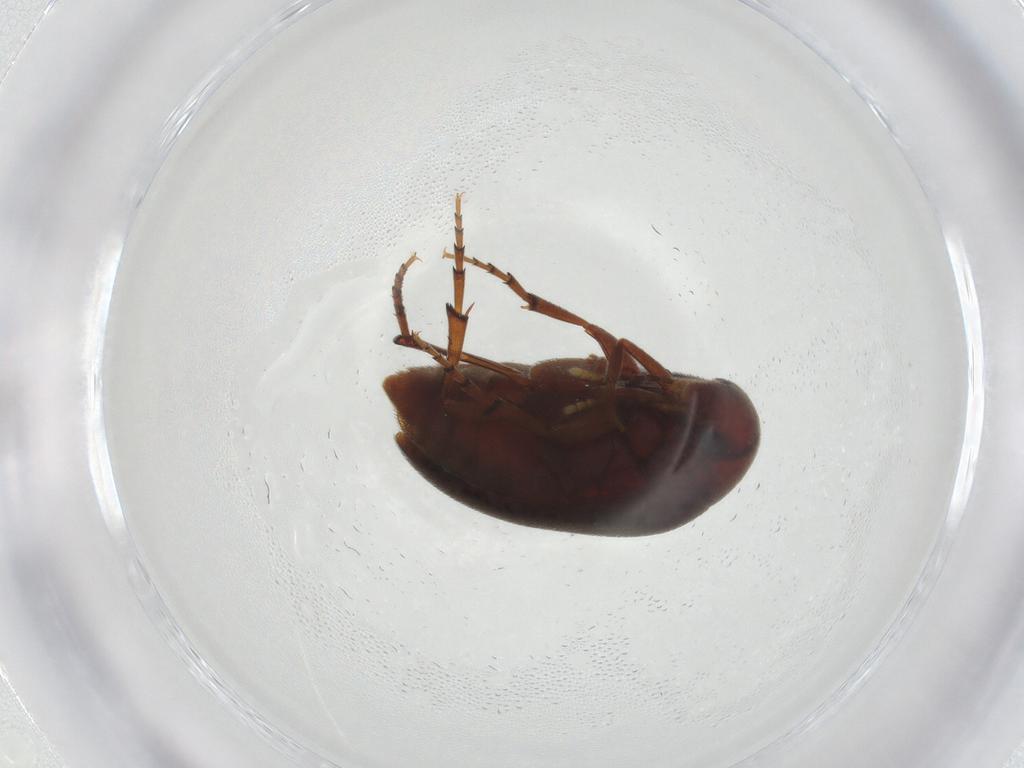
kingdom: Animalia
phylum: Arthropoda
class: Insecta
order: Coleoptera
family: Eucinetidae
